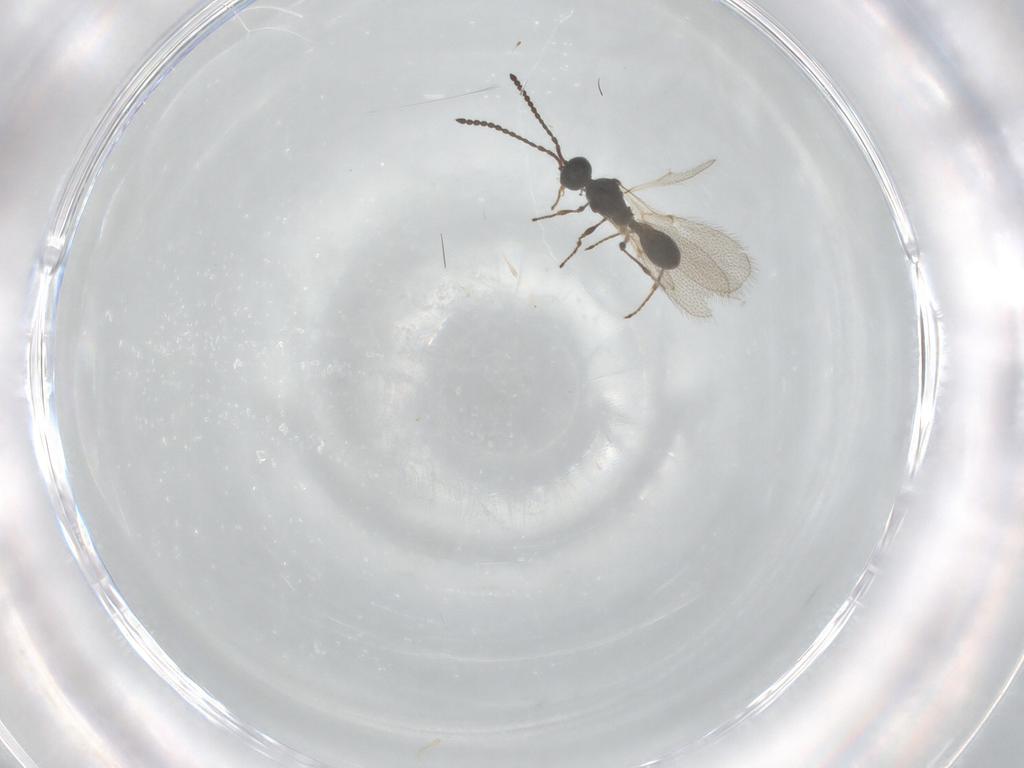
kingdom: Animalia
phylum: Arthropoda
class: Insecta
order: Hymenoptera
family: Diapriidae
